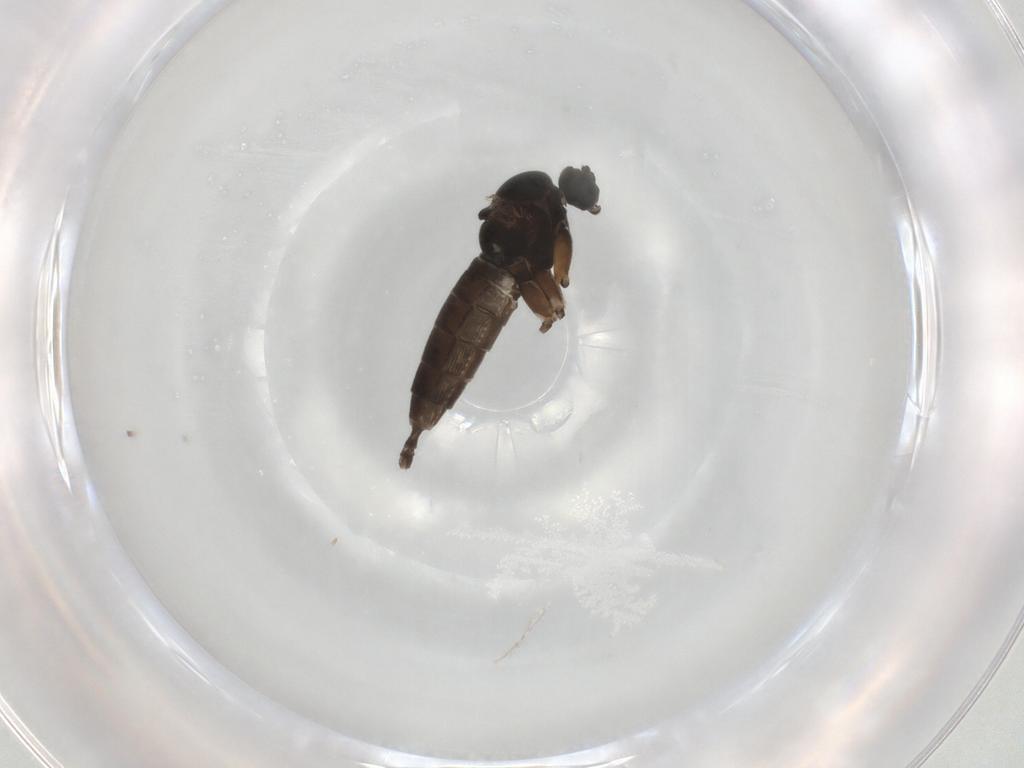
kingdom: Animalia
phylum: Arthropoda
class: Insecta
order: Diptera
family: Sciaridae
